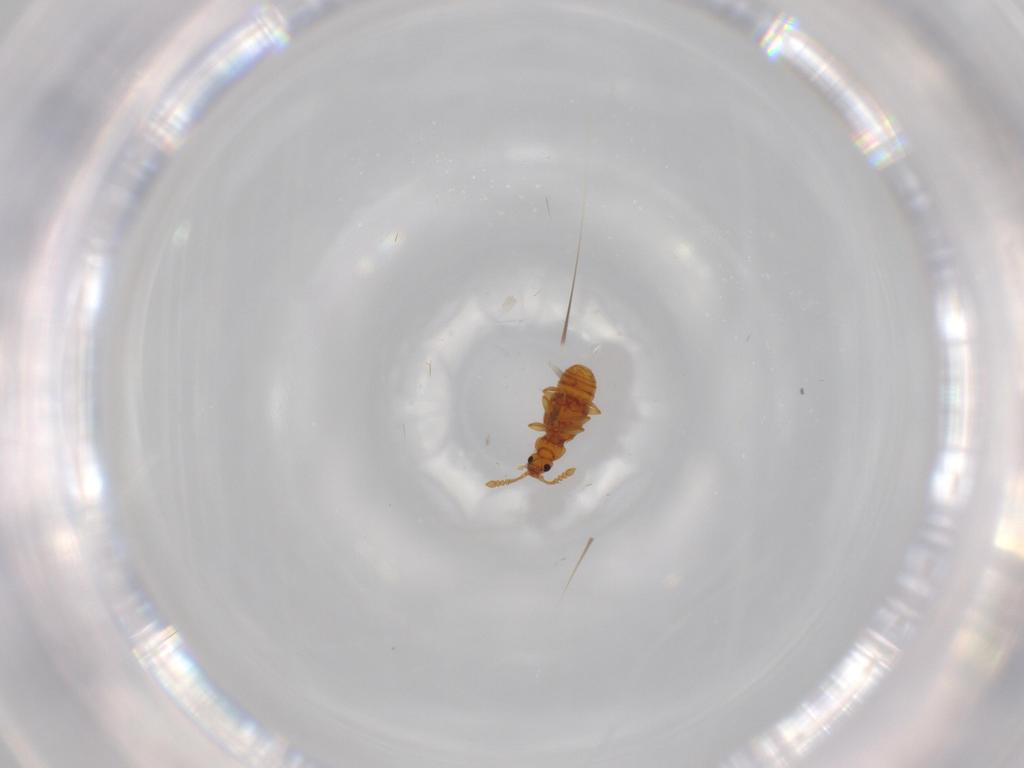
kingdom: Animalia
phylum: Arthropoda
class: Insecta
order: Coleoptera
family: Staphylinidae
